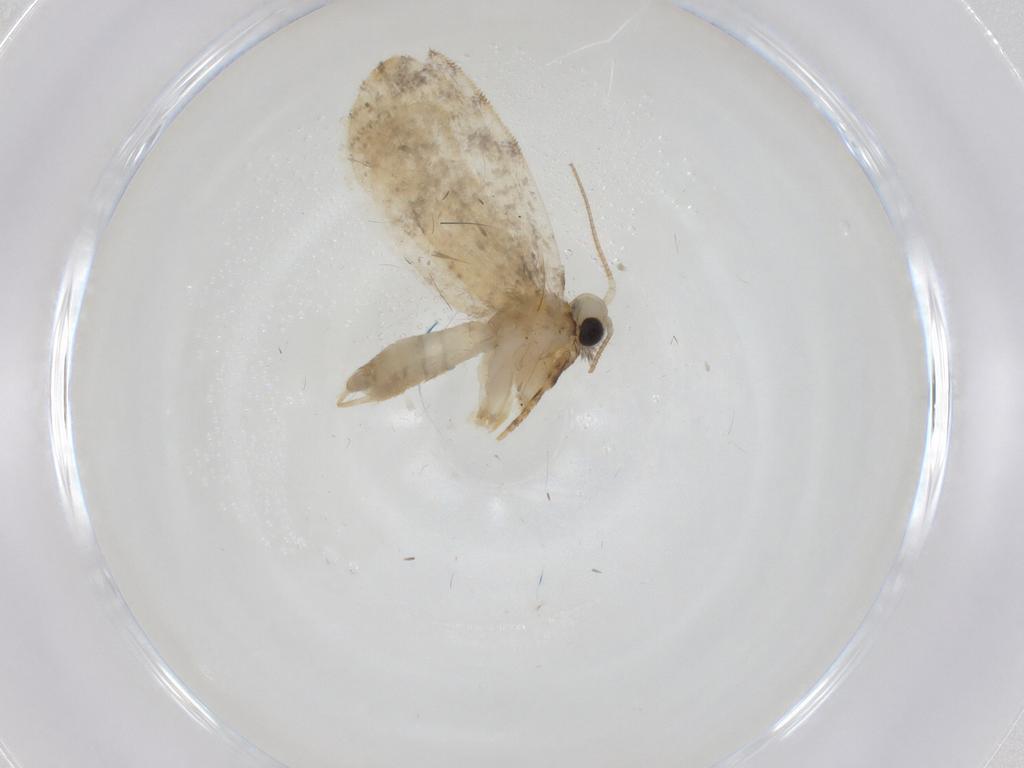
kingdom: Animalia
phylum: Arthropoda
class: Insecta
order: Lepidoptera
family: Psychidae
